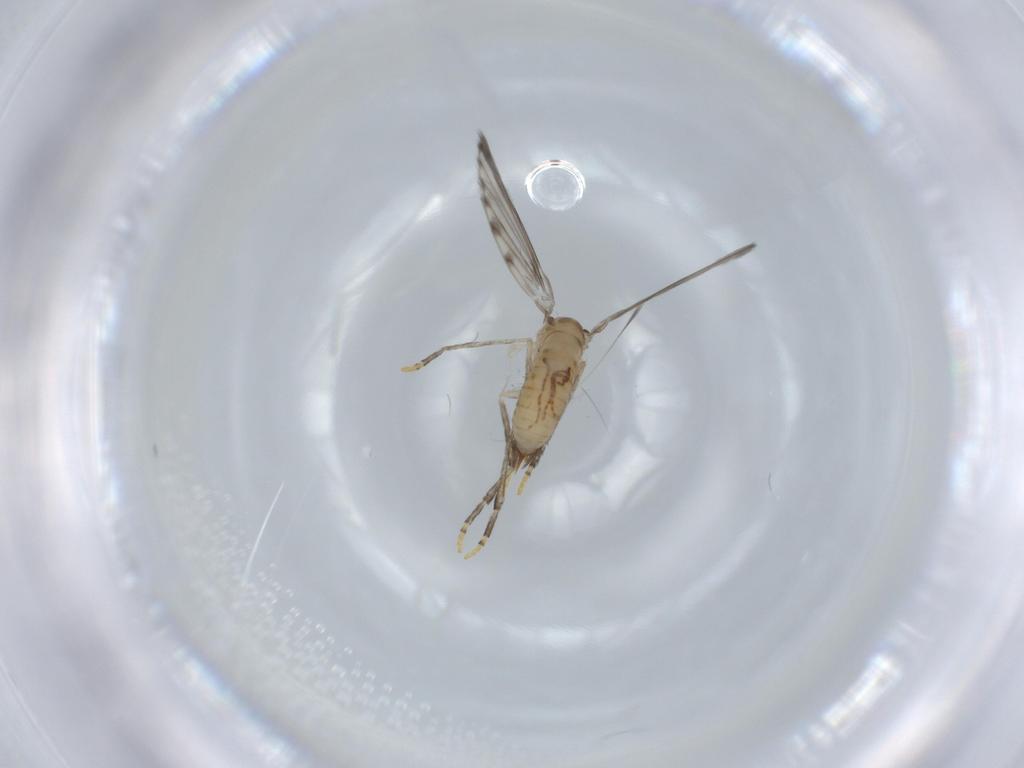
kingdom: Animalia
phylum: Arthropoda
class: Insecta
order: Diptera
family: Psychodidae
